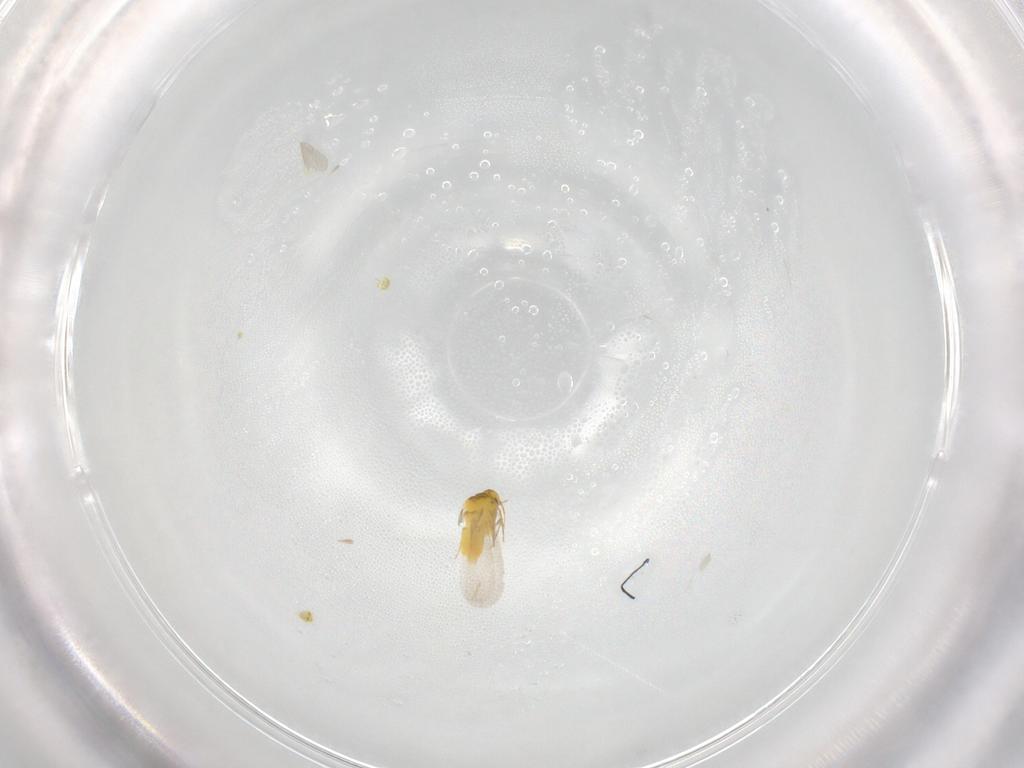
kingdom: Animalia
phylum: Arthropoda
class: Insecta
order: Hemiptera
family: Aleyrodidae
